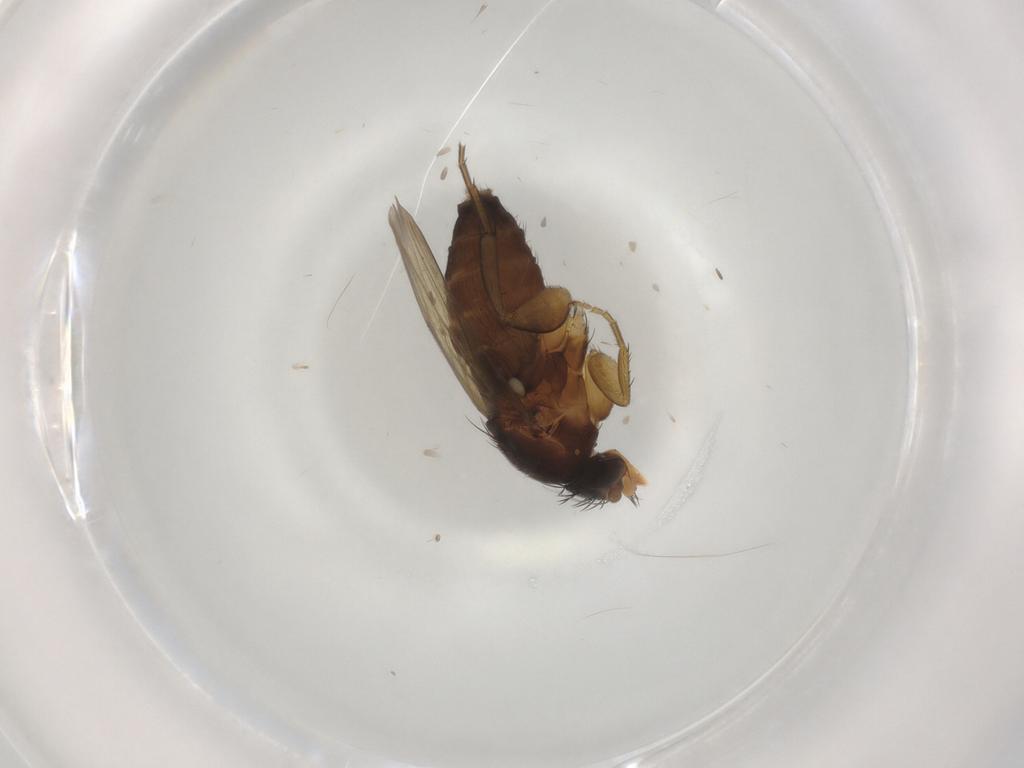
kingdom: Animalia
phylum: Arthropoda
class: Insecta
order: Diptera
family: Phoridae
